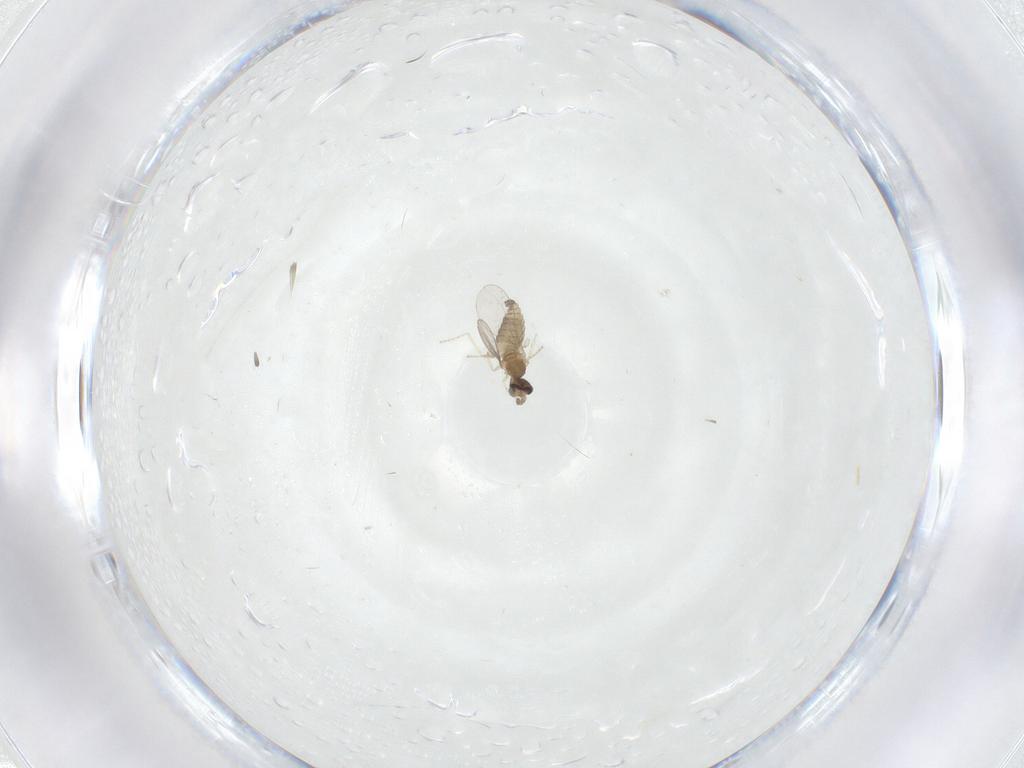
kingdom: Animalia
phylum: Arthropoda
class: Insecta
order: Diptera
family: Cecidomyiidae
